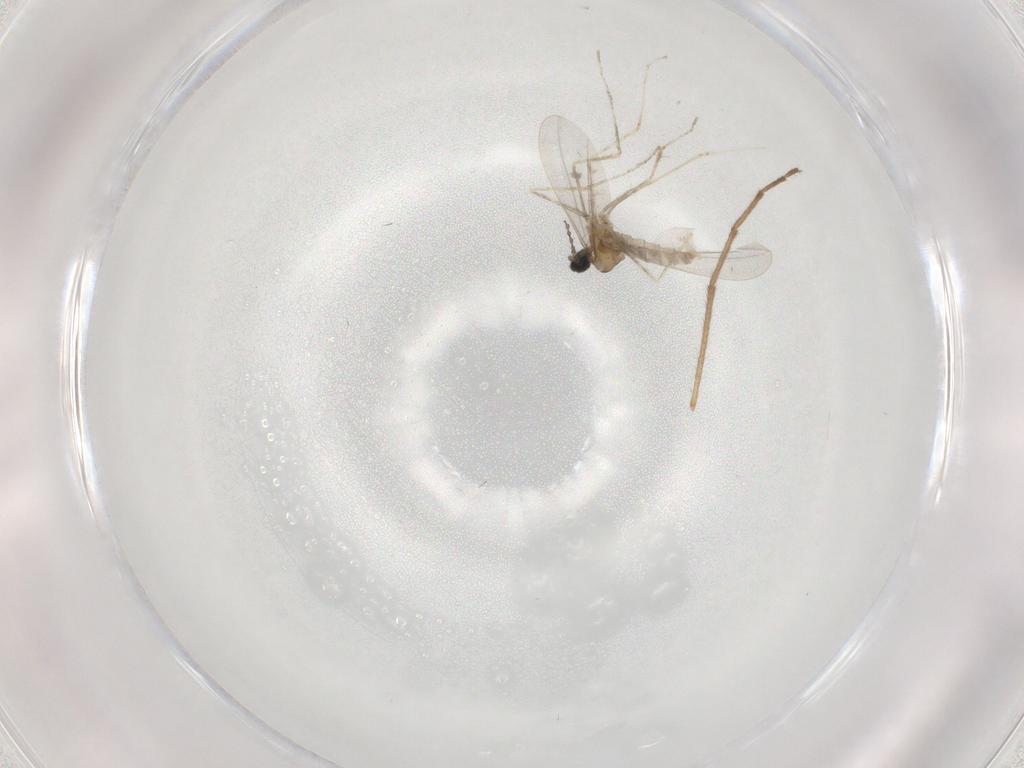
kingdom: Animalia
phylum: Arthropoda
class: Insecta
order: Diptera
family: Cecidomyiidae
